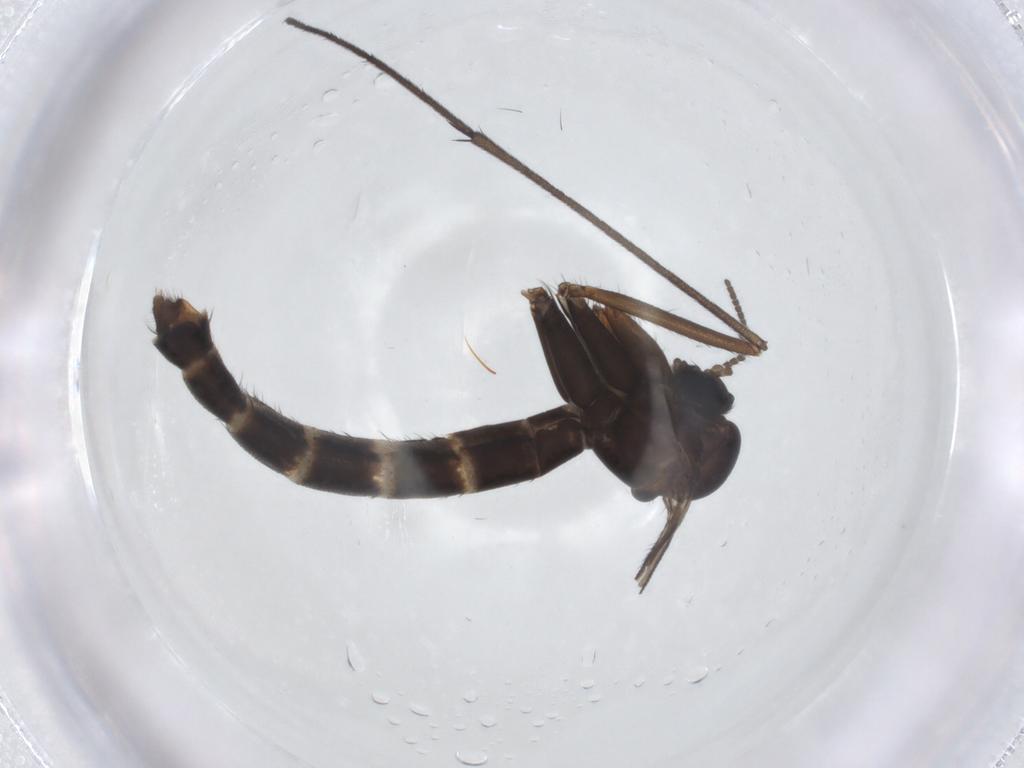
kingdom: Animalia
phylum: Arthropoda
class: Insecta
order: Diptera
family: Ditomyiidae
